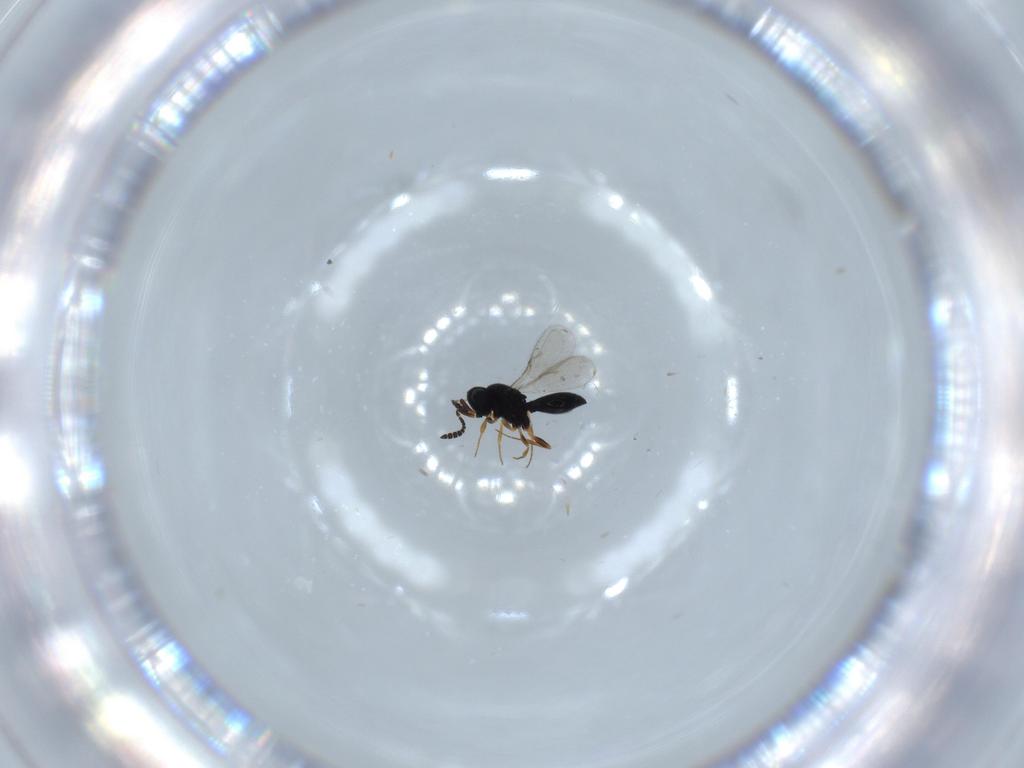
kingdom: Animalia
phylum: Arthropoda
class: Insecta
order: Hymenoptera
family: Scelionidae
